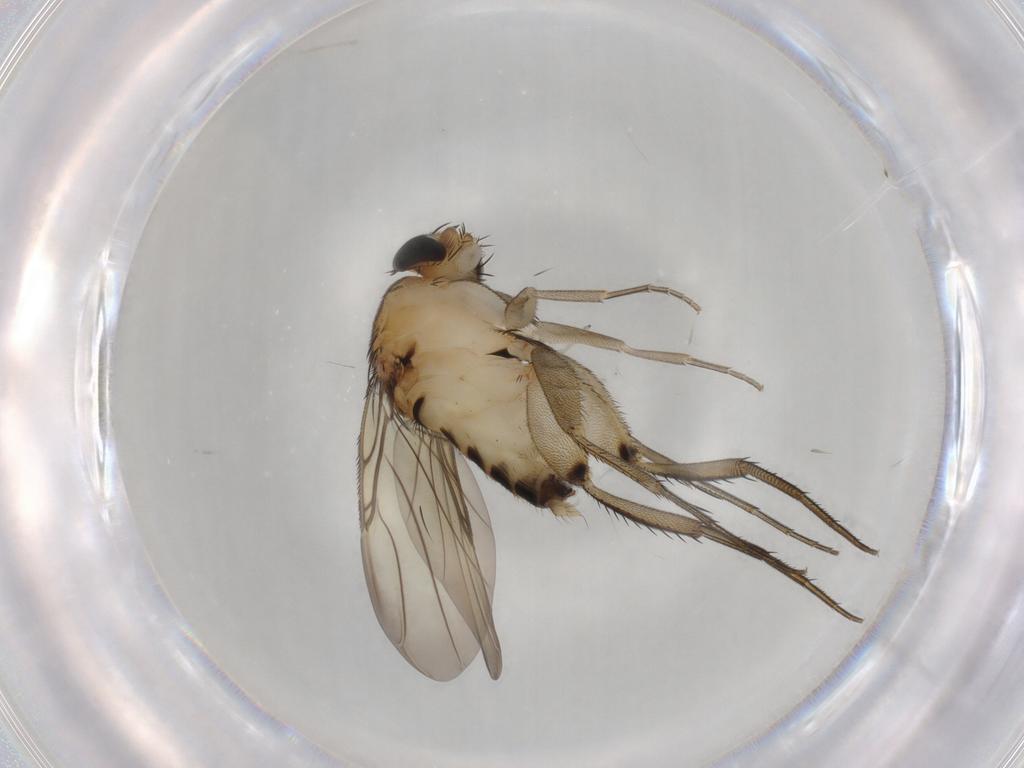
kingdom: Animalia
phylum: Arthropoda
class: Insecta
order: Diptera
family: Phoridae
